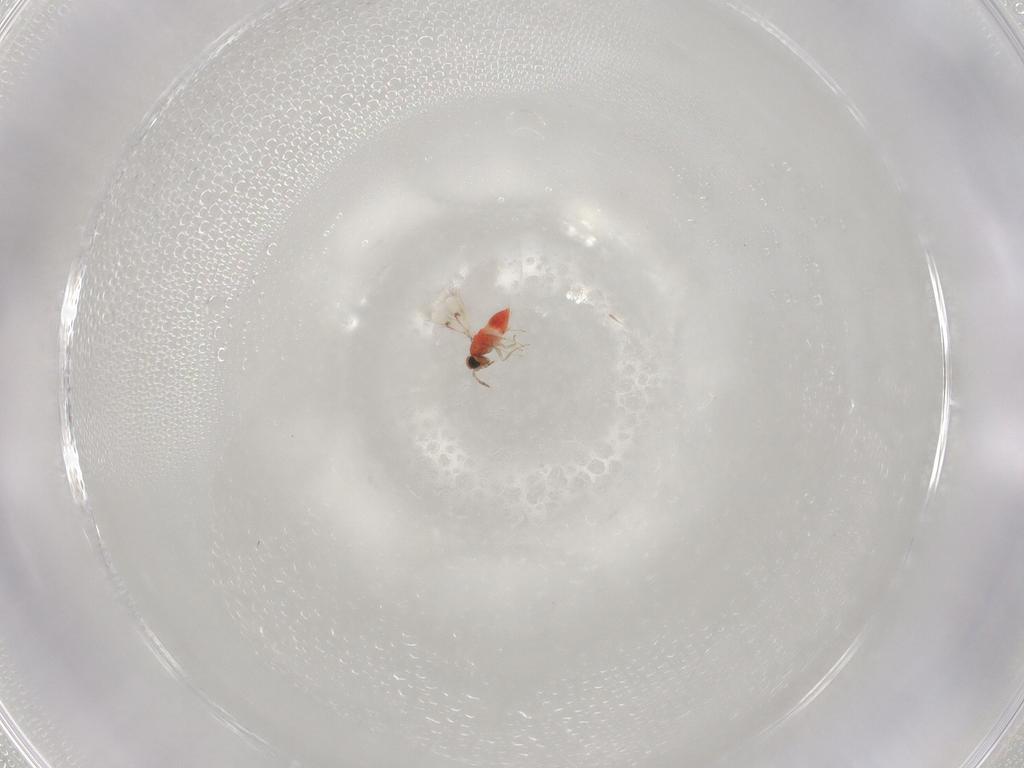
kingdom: Animalia
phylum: Arthropoda
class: Insecta
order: Hymenoptera
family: Trichogrammatidae
